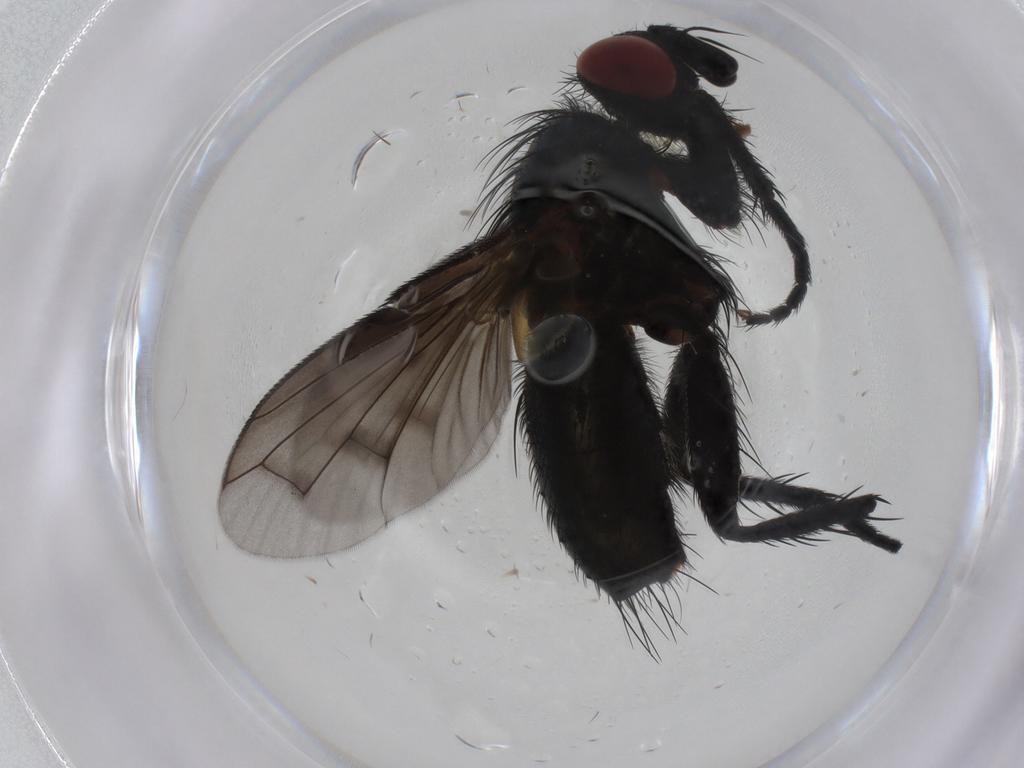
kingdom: Animalia
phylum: Arthropoda
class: Insecta
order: Diptera
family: Tachinidae
